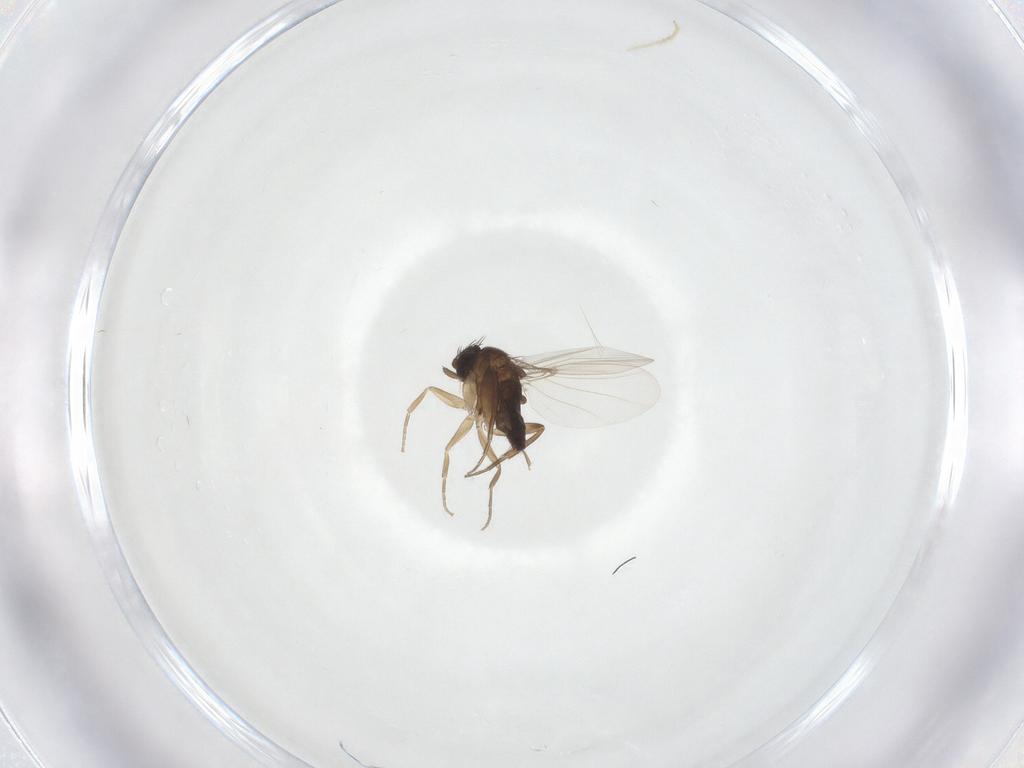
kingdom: Animalia
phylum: Arthropoda
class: Insecta
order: Diptera
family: Phoridae
